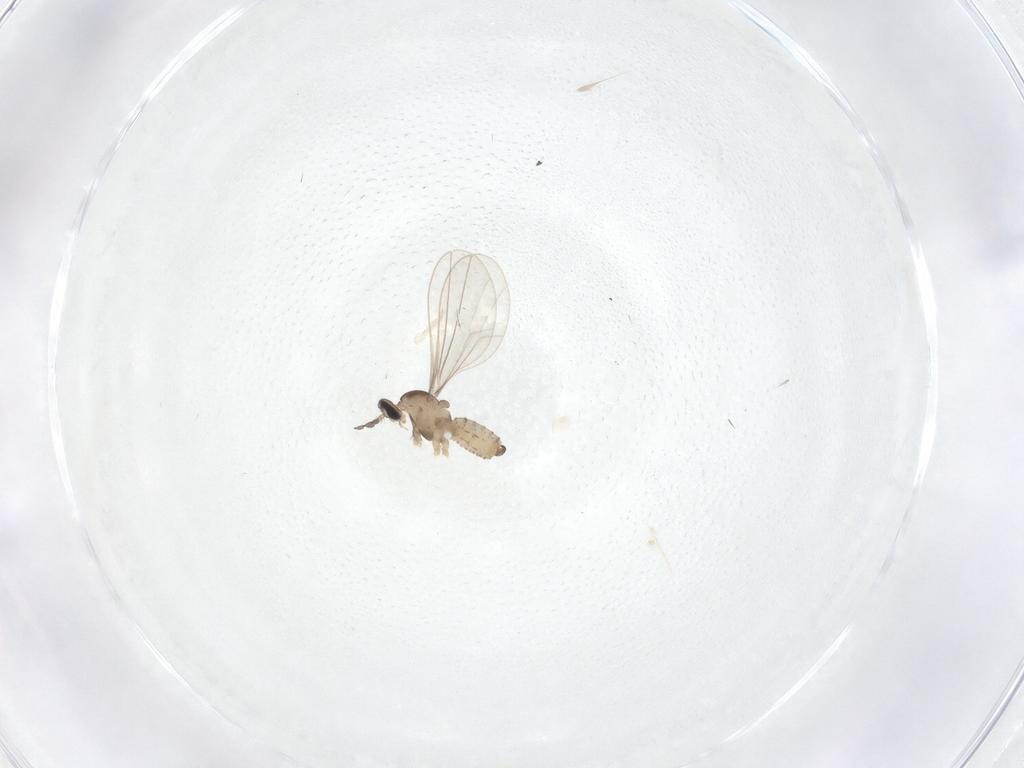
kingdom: Animalia
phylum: Arthropoda
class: Insecta
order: Diptera
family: Cecidomyiidae
